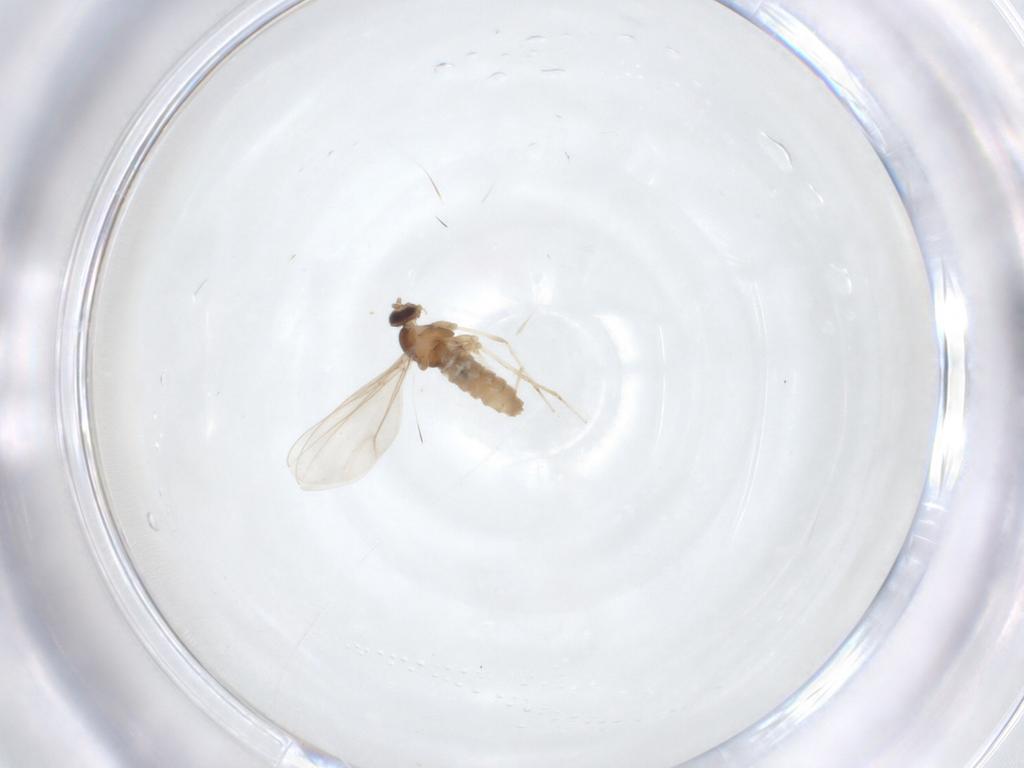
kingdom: Animalia
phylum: Arthropoda
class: Insecta
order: Diptera
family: Cecidomyiidae
